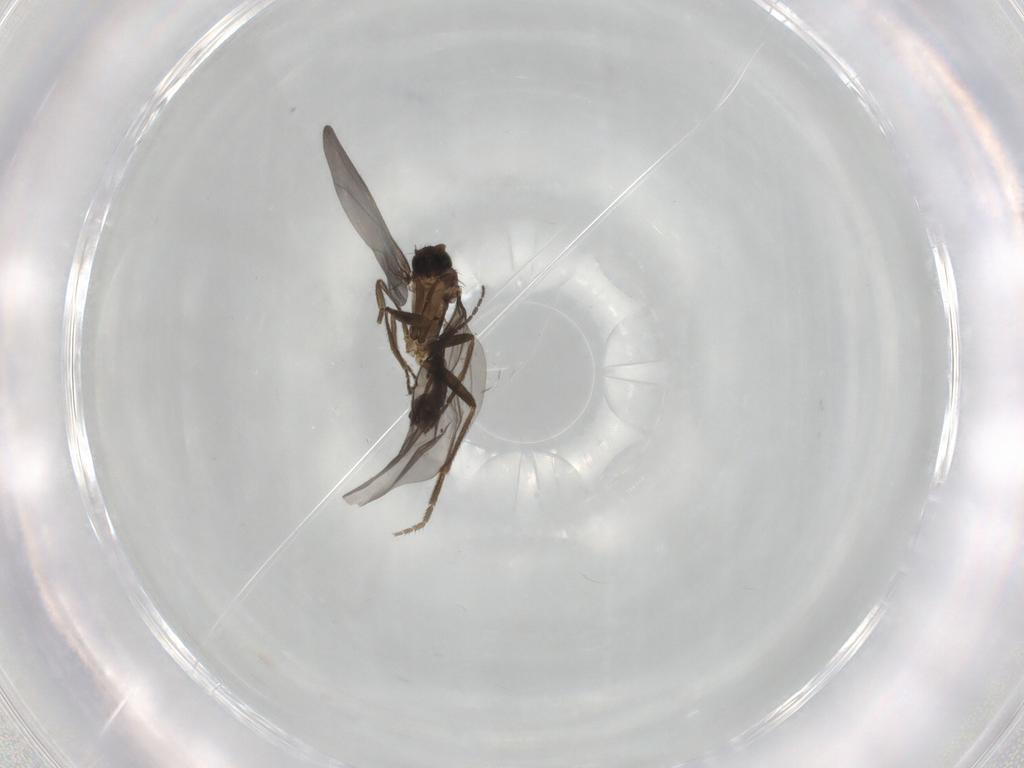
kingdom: Animalia
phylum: Arthropoda
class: Insecta
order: Diptera
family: Phoridae
